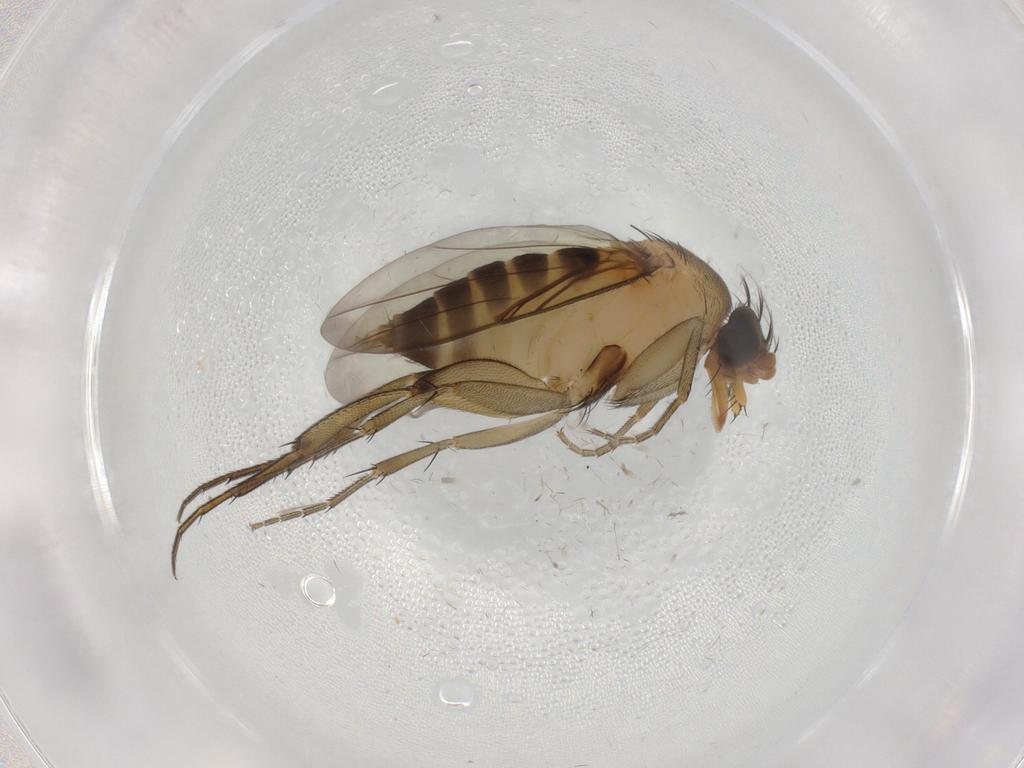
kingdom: Animalia
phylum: Arthropoda
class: Insecta
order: Diptera
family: Phoridae
